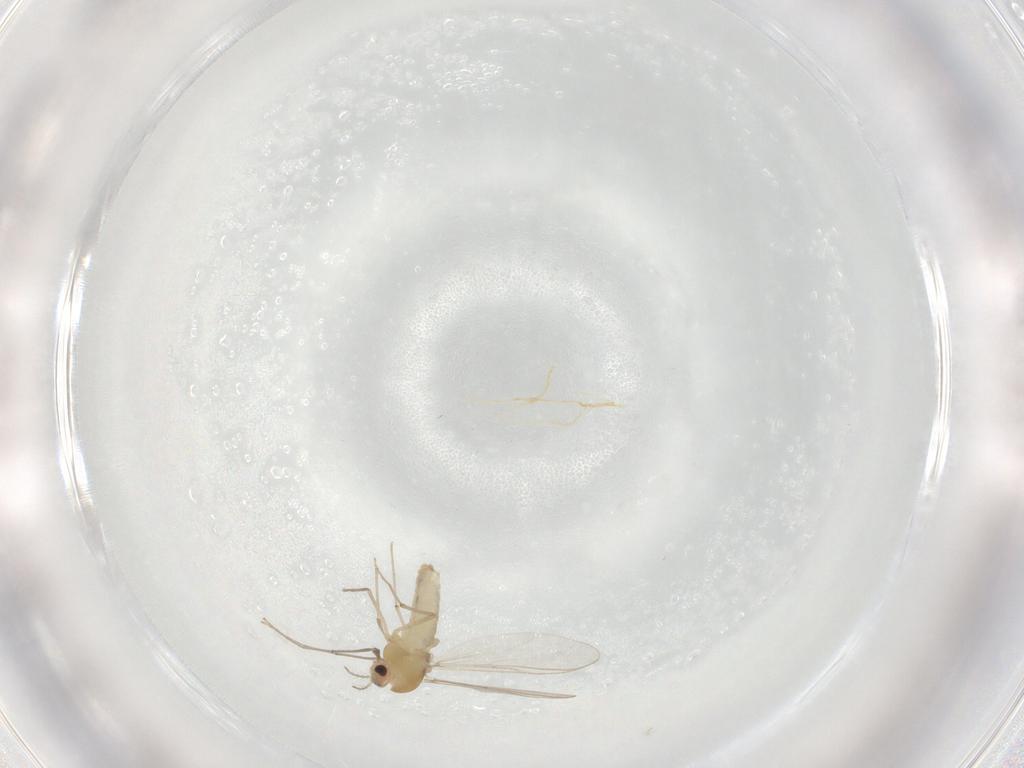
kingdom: Animalia
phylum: Arthropoda
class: Insecta
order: Diptera
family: Chironomidae
